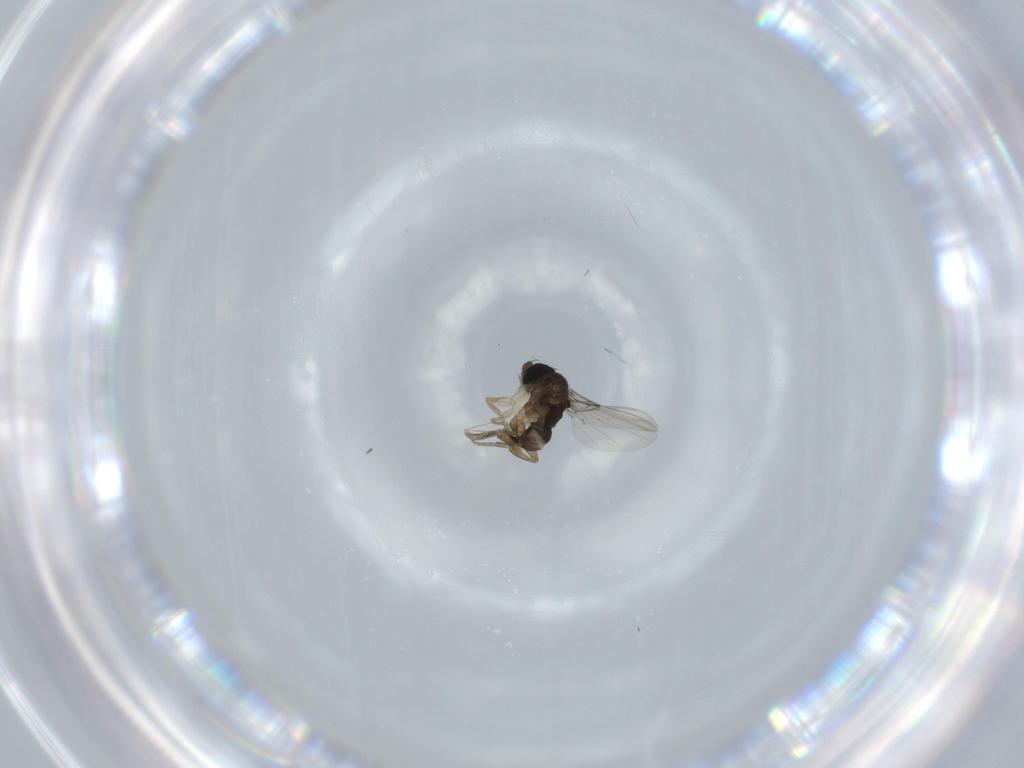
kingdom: Animalia
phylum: Arthropoda
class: Insecta
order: Diptera
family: Phoridae
